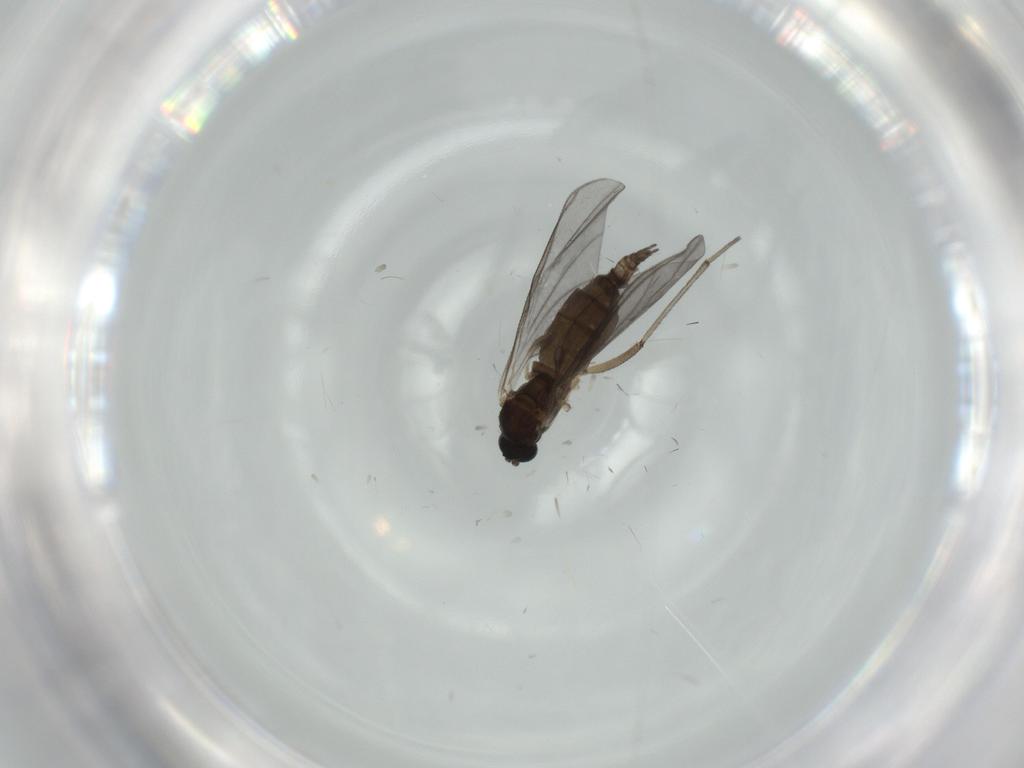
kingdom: Animalia
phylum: Arthropoda
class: Insecta
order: Diptera
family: Sciaridae
